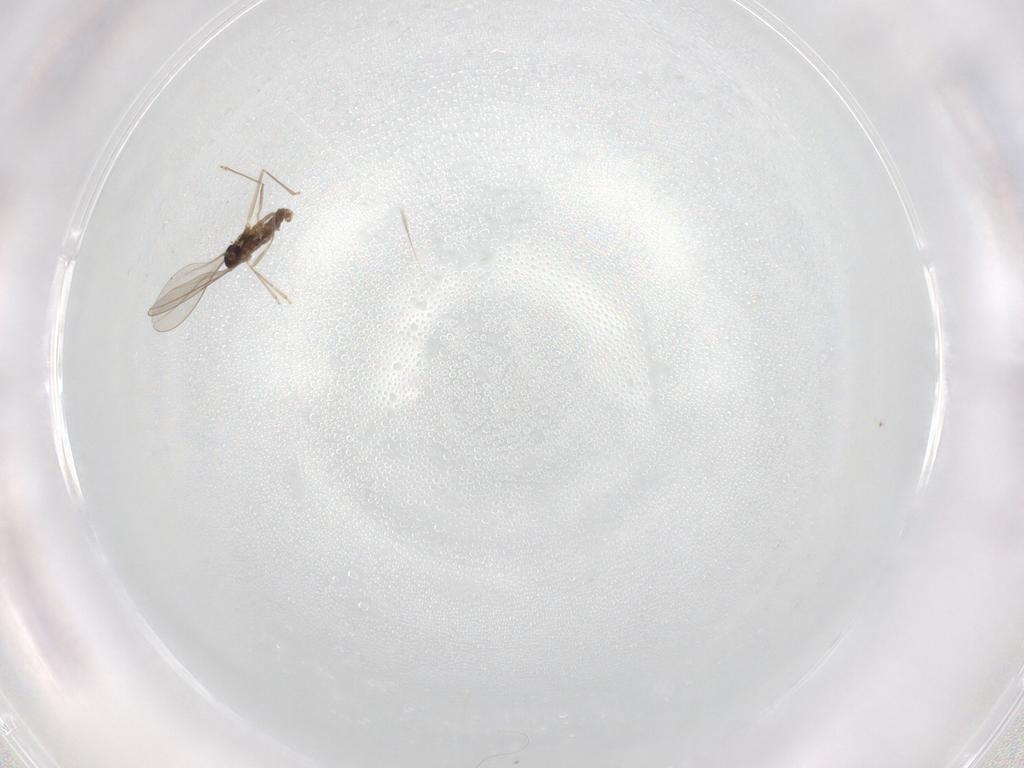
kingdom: Animalia
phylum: Arthropoda
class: Insecta
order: Diptera
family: Cecidomyiidae
